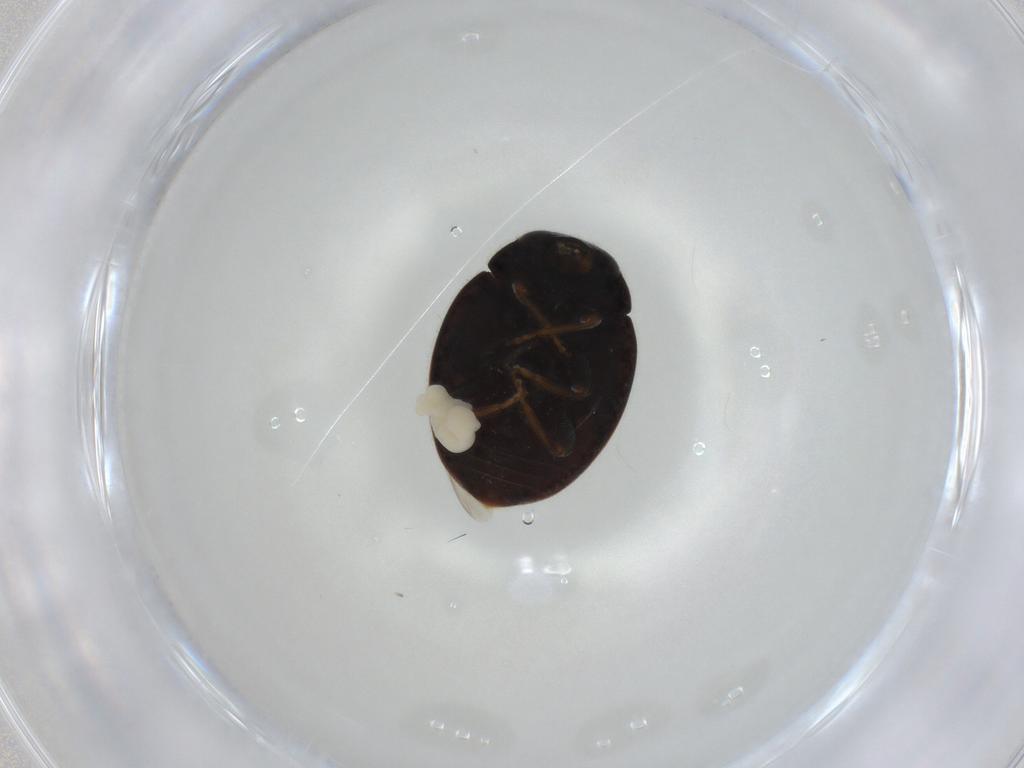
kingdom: Animalia
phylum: Arthropoda
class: Insecta
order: Coleoptera
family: Coccinellidae
